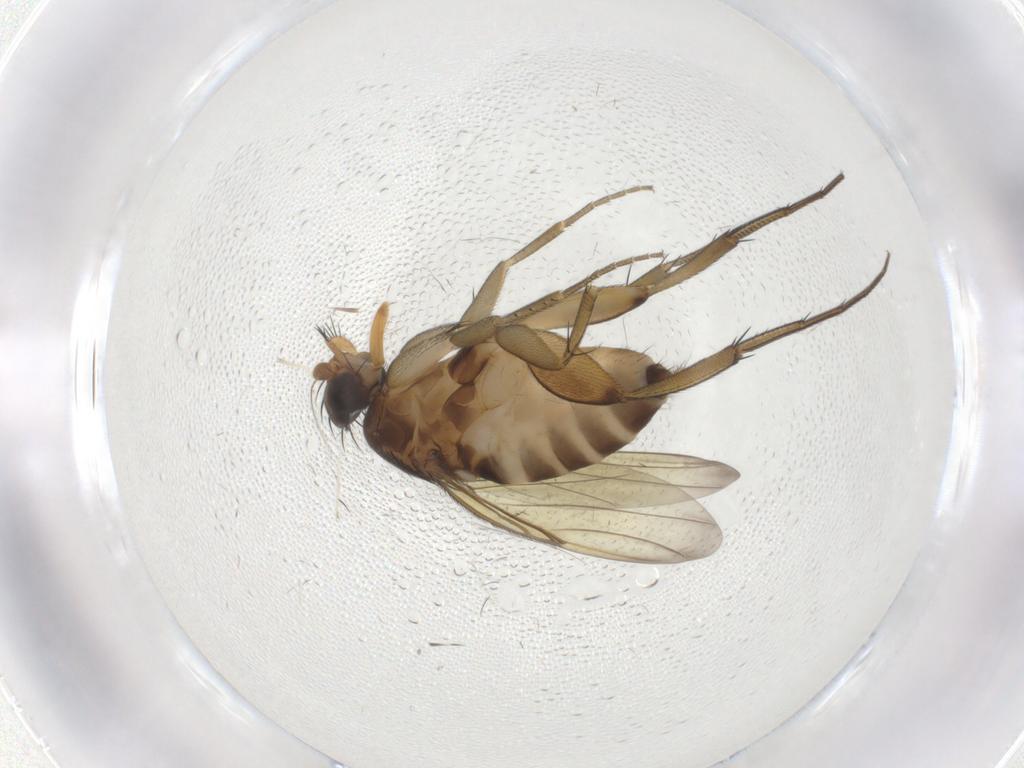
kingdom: Animalia
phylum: Arthropoda
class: Insecta
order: Diptera
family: Phoridae
